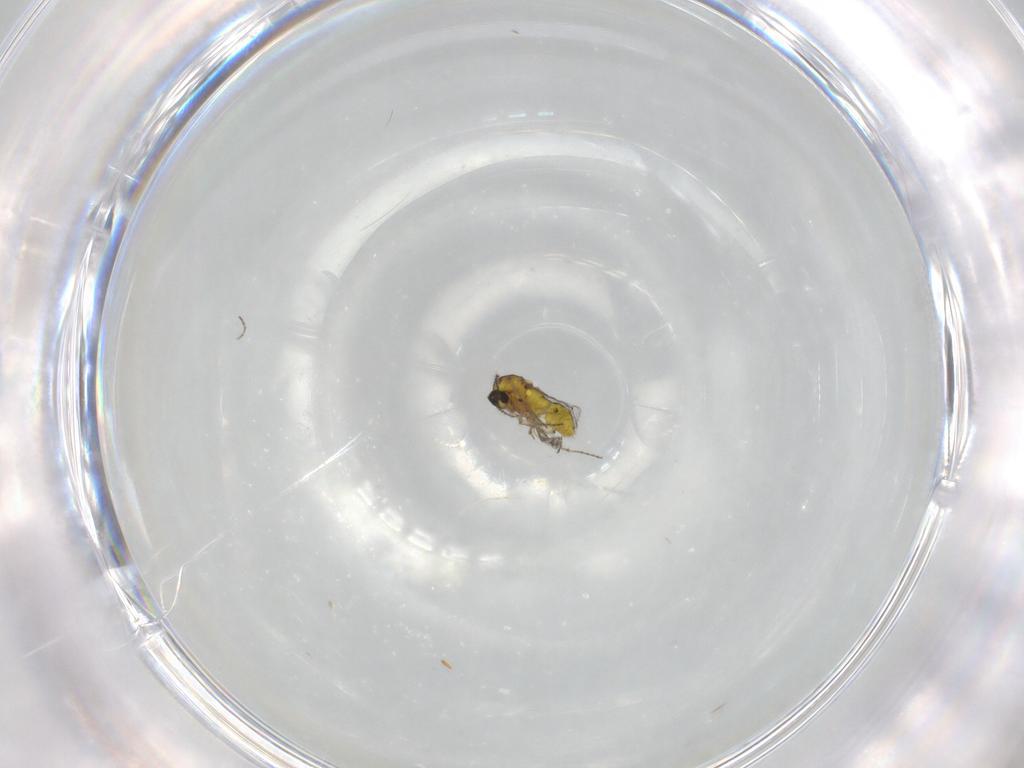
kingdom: Animalia
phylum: Arthropoda
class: Insecta
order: Diptera
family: Ceratopogonidae
